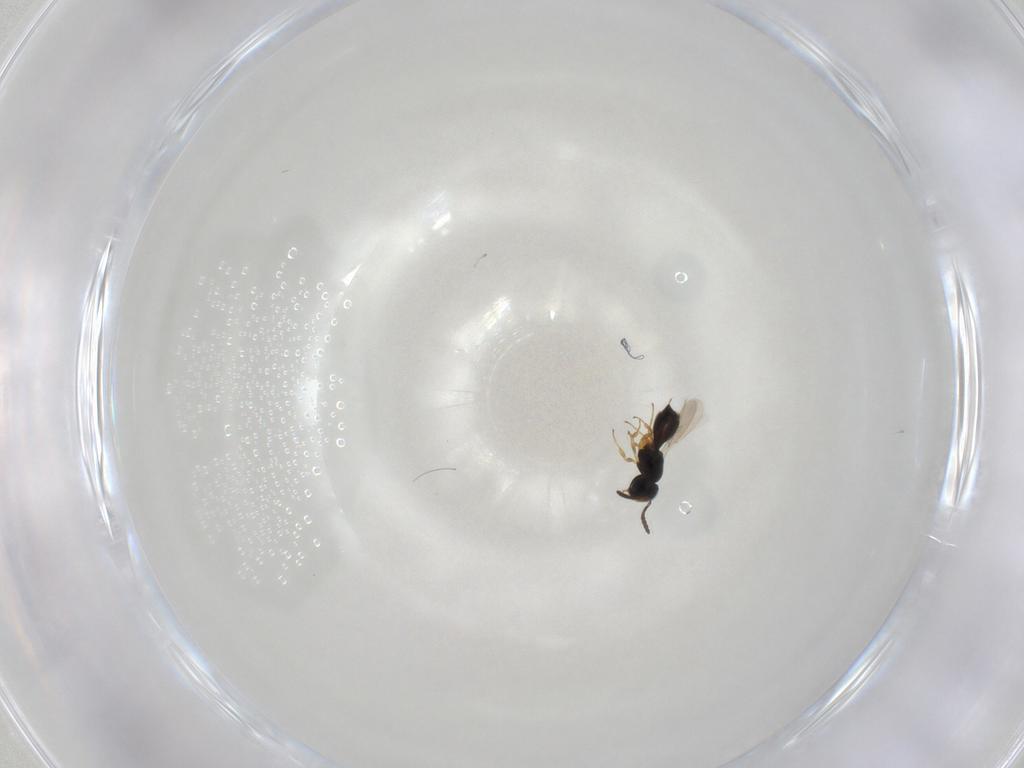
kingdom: Animalia
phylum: Arthropoda
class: Insecta
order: Hymenoptera
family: Scelionidae
